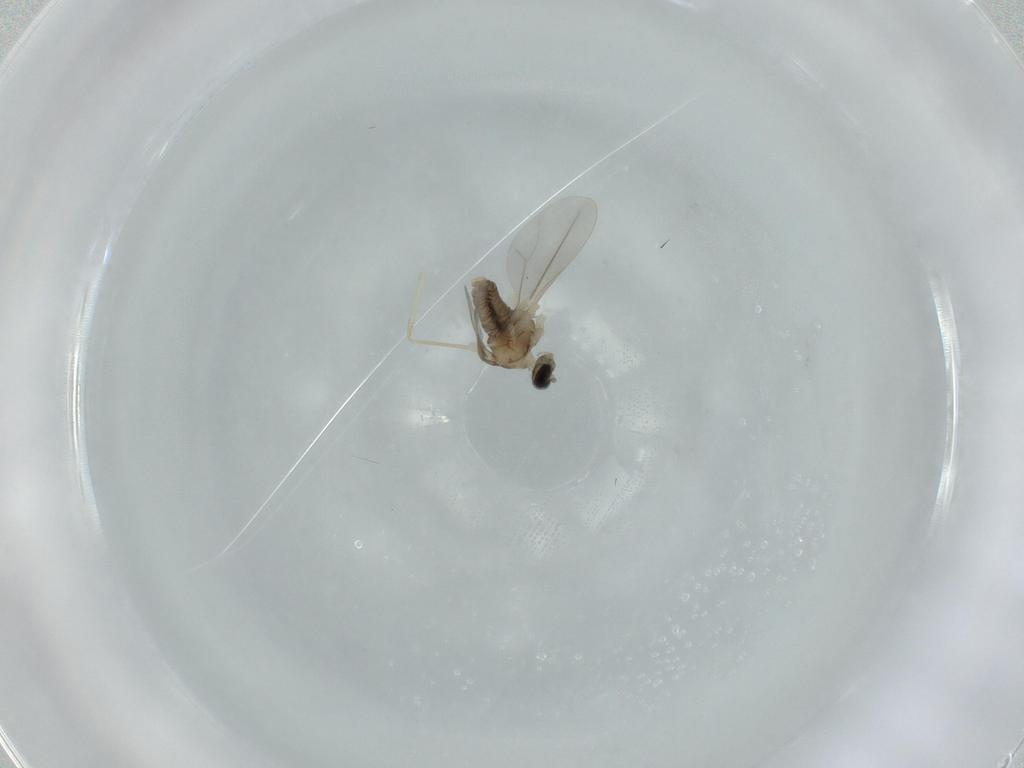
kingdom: Animalia
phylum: Arthropoda
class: Insecta
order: Diptera
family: Cecidomyiidae
